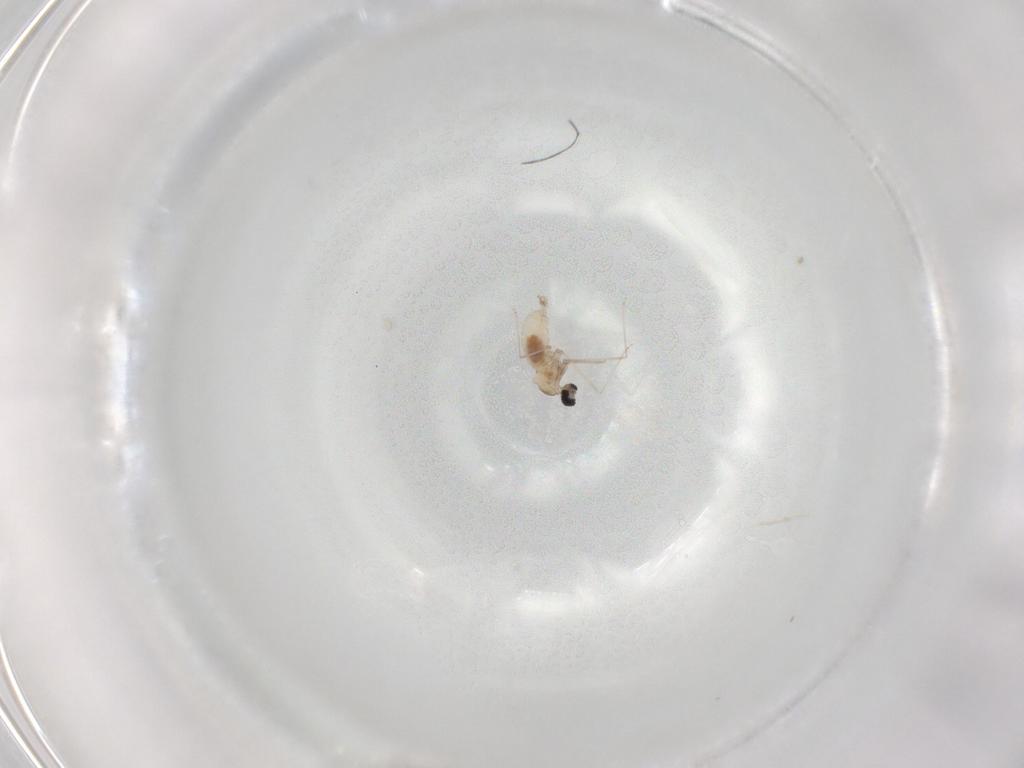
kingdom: Animalia
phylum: Arthropoda
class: Insecta
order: Diptera
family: Cecidomyiidae
